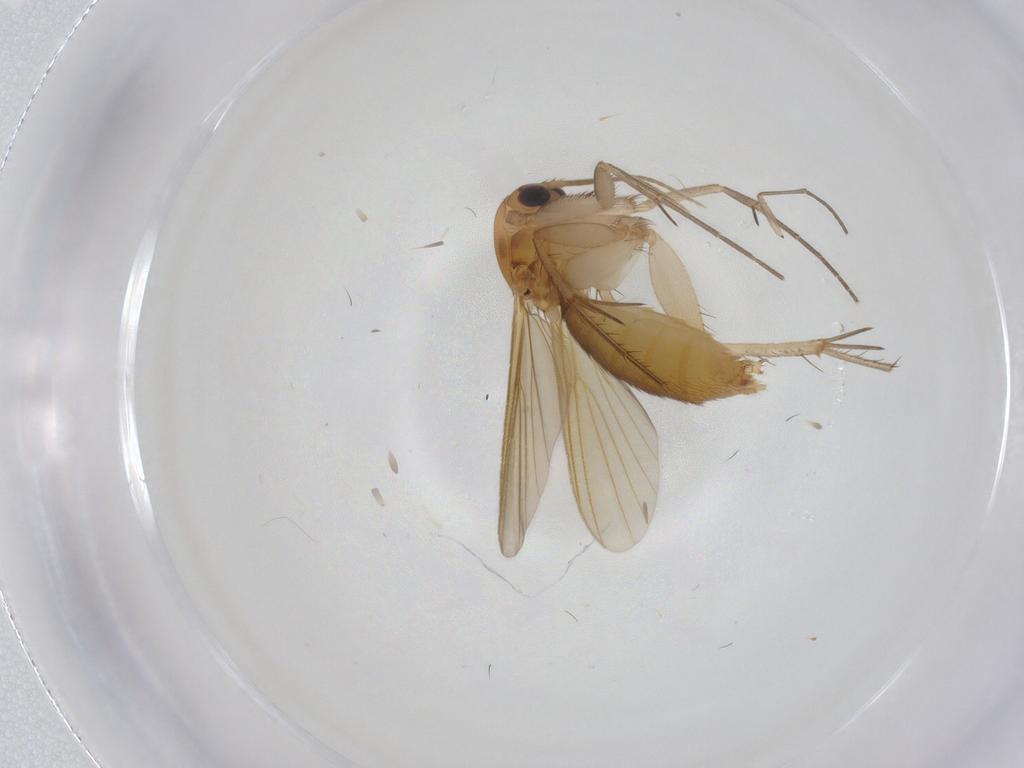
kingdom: Animalia
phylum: Arthropoda
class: Insecta
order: Diptera
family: Mycetophilidae
